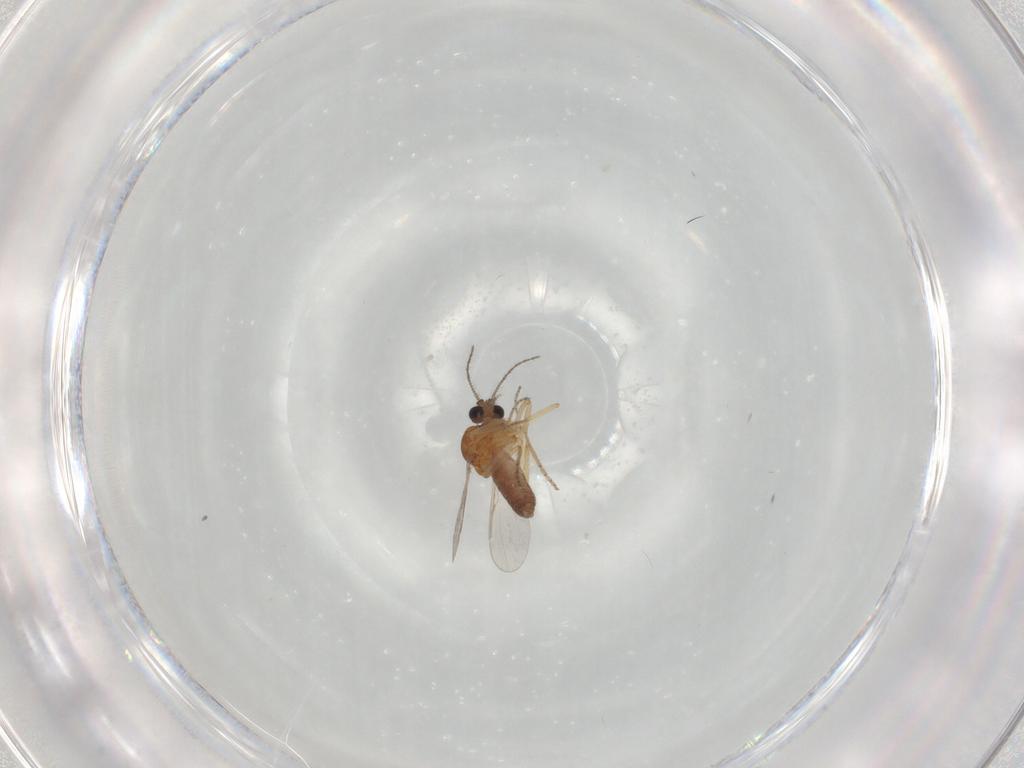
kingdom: Animalia
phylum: Arthropoda
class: Insecta
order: Diptera
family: Ceratopogonidae
